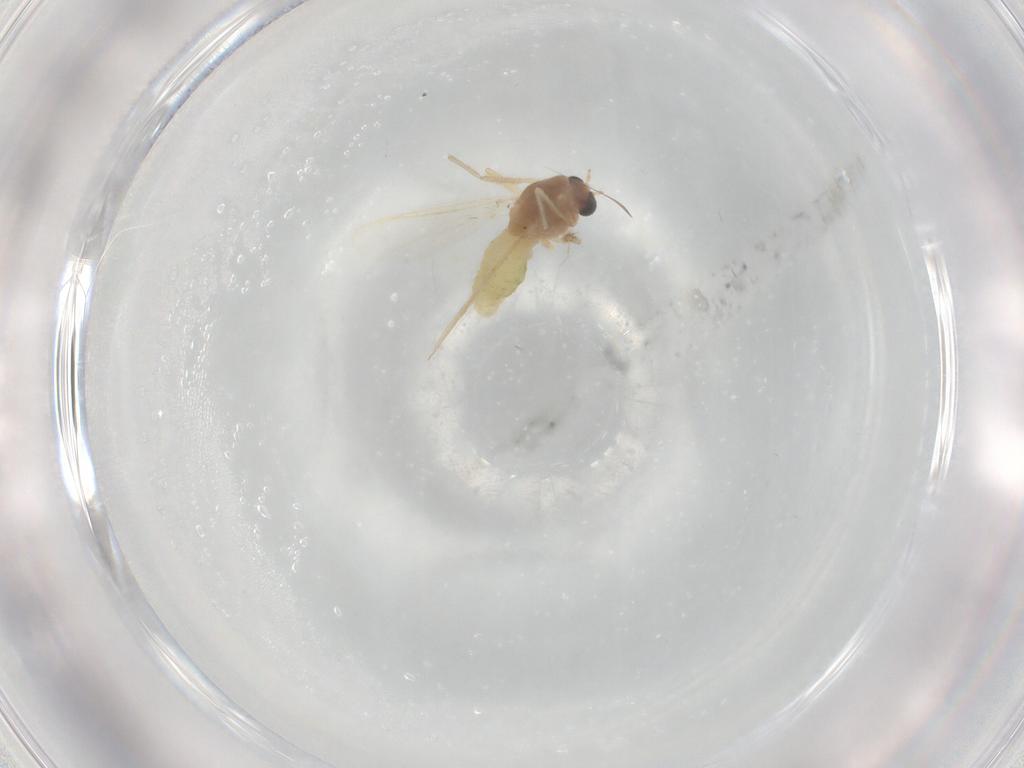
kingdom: Animalia
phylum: Arthropoda
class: Insecta
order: Diptera
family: Chironomidae
